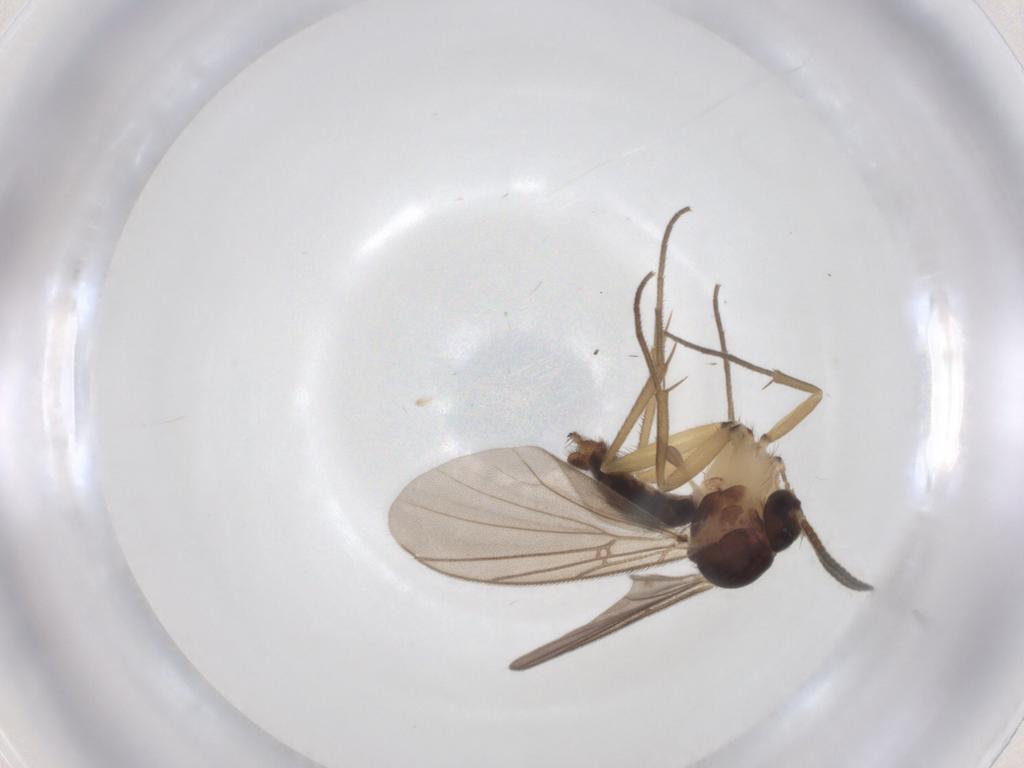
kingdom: Animalia
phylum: Arthropoda
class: Insecta
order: Diptera
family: Mycetophilidae
